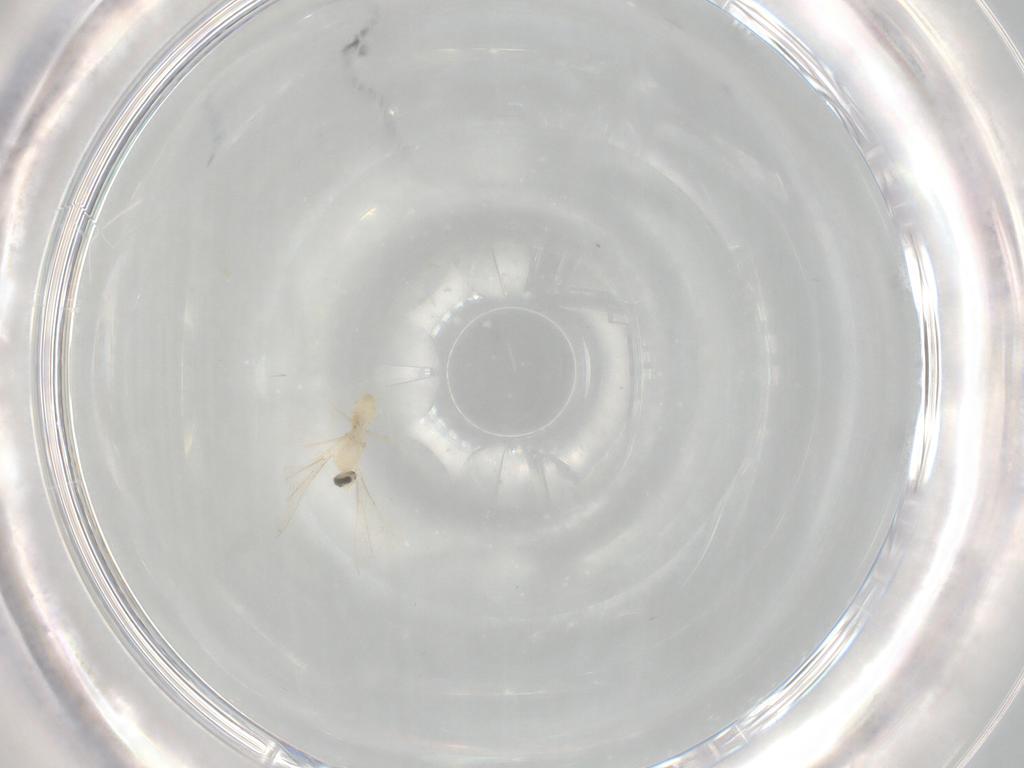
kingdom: Animalia
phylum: Arthropoda
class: Insecta
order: Diptera
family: Cecidomyiidae
